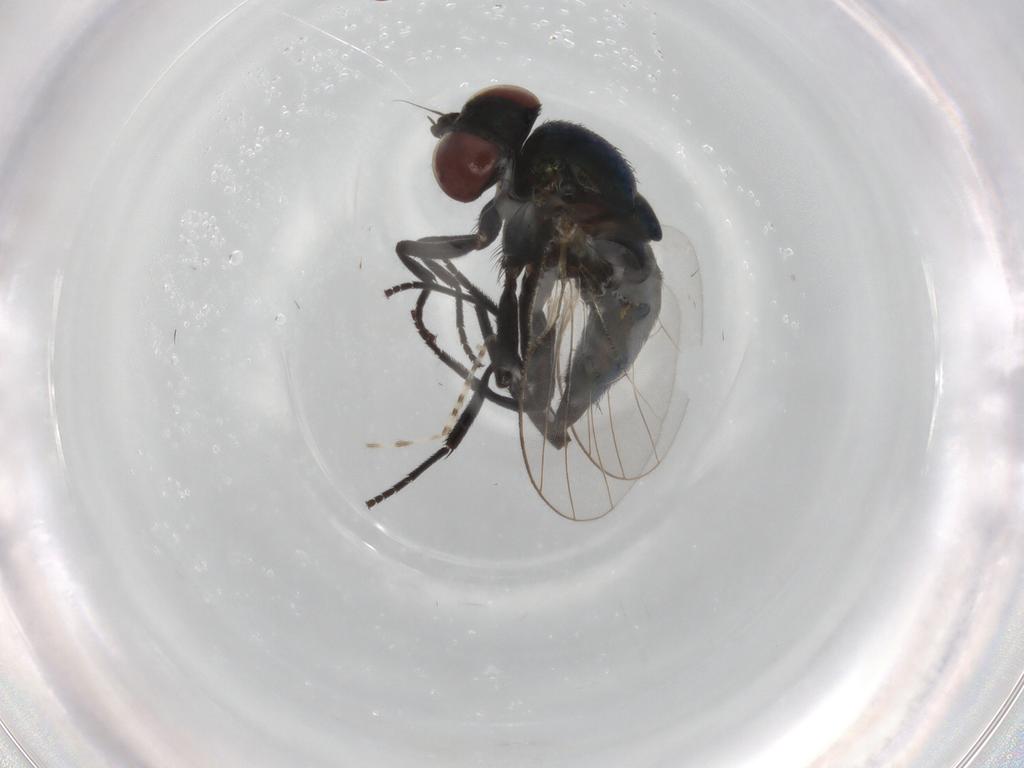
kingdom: Animalia
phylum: Arthropoda
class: Insecta
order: Diptera
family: Agromyzidae
